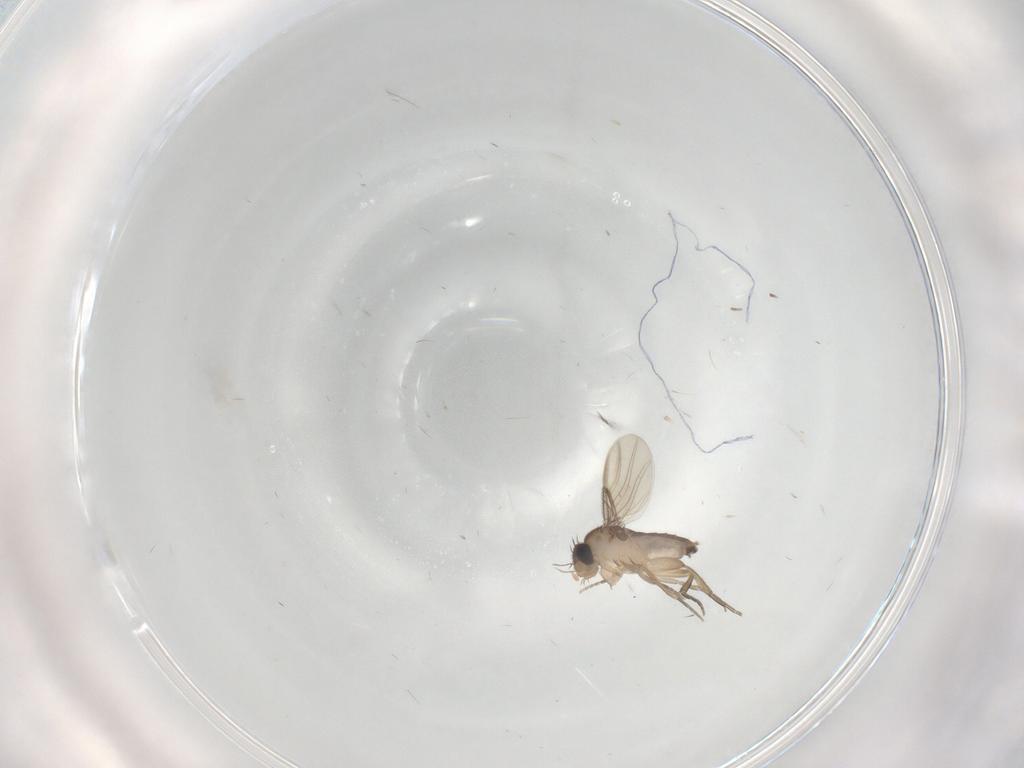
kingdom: Animalia
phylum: Arthropoda
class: Insecta
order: Diptera
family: Phoridae
